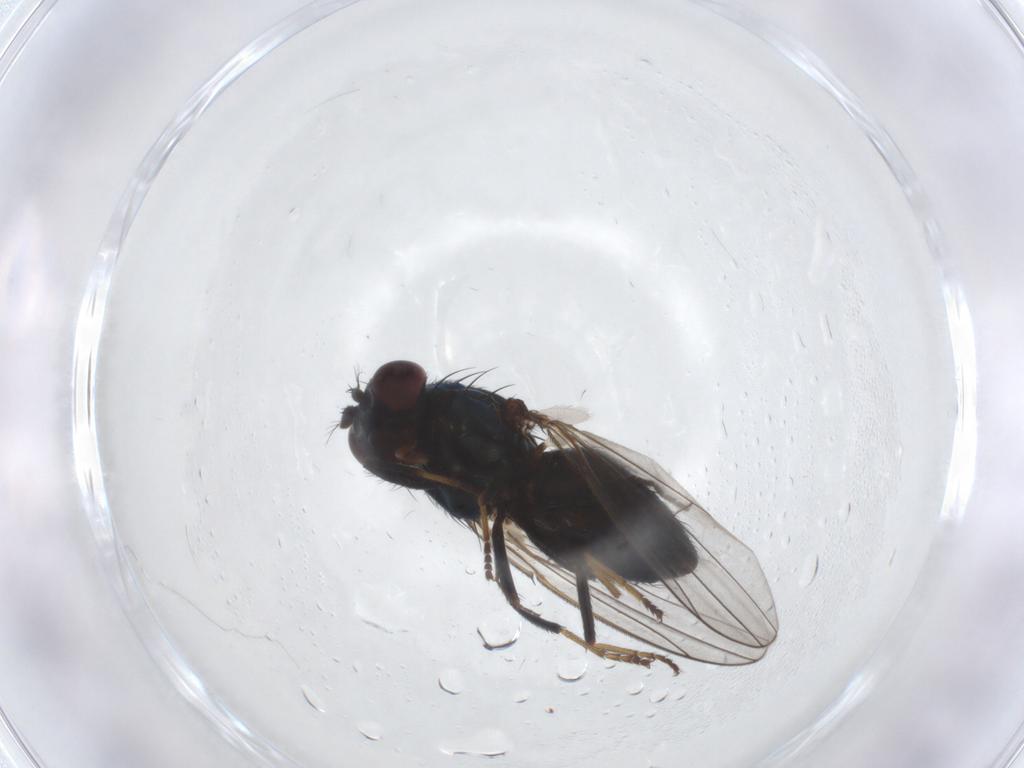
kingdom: Animalia
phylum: Arthropoda
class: Insecta
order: Diptera
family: Sciaridae
